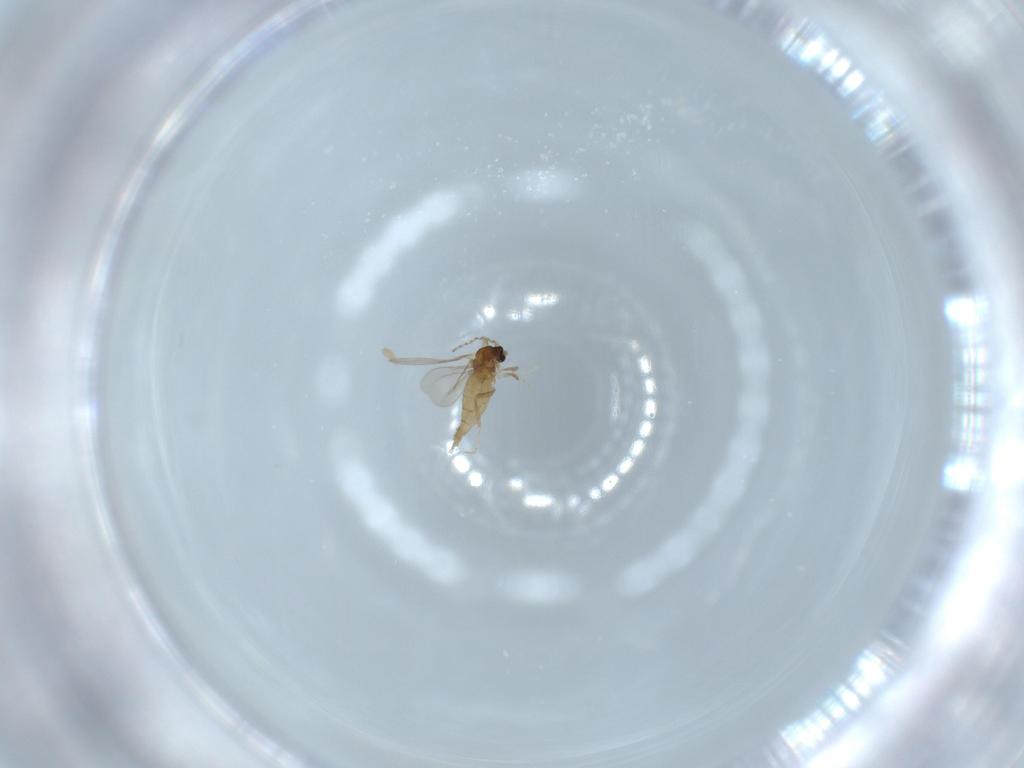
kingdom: Animalia
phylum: Arthropoda
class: Insecta
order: Diptera
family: Cecidomyiidae
